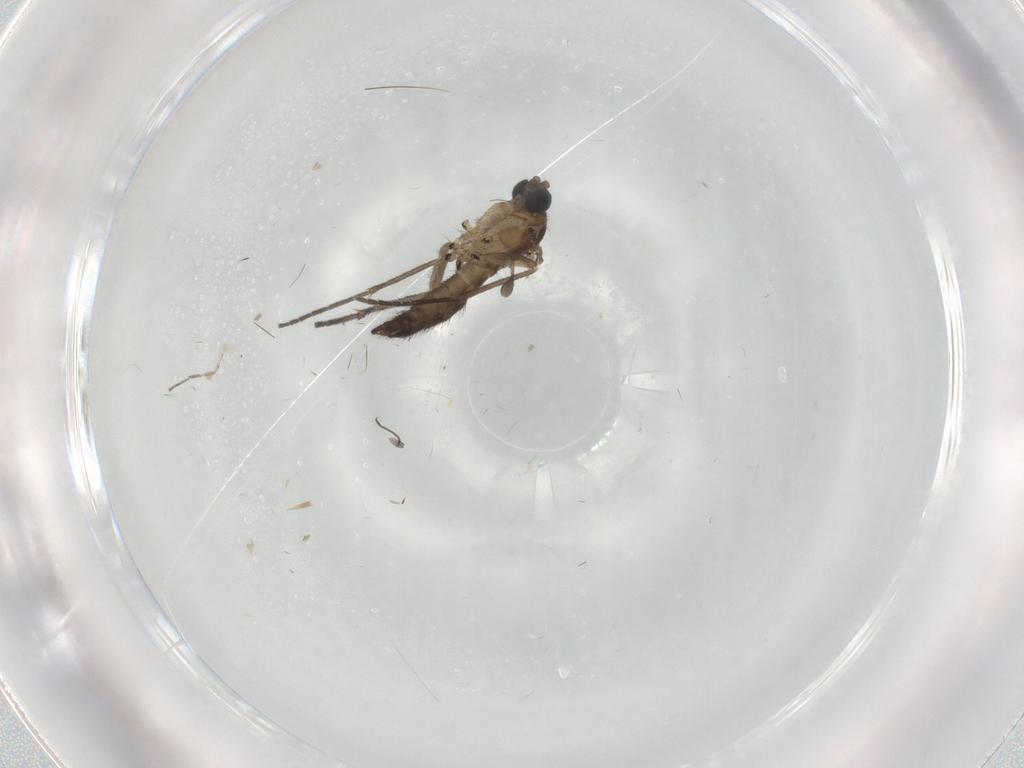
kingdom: Animalia
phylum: Arthropoda
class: Insecta
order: Diptera
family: Sciaridae
